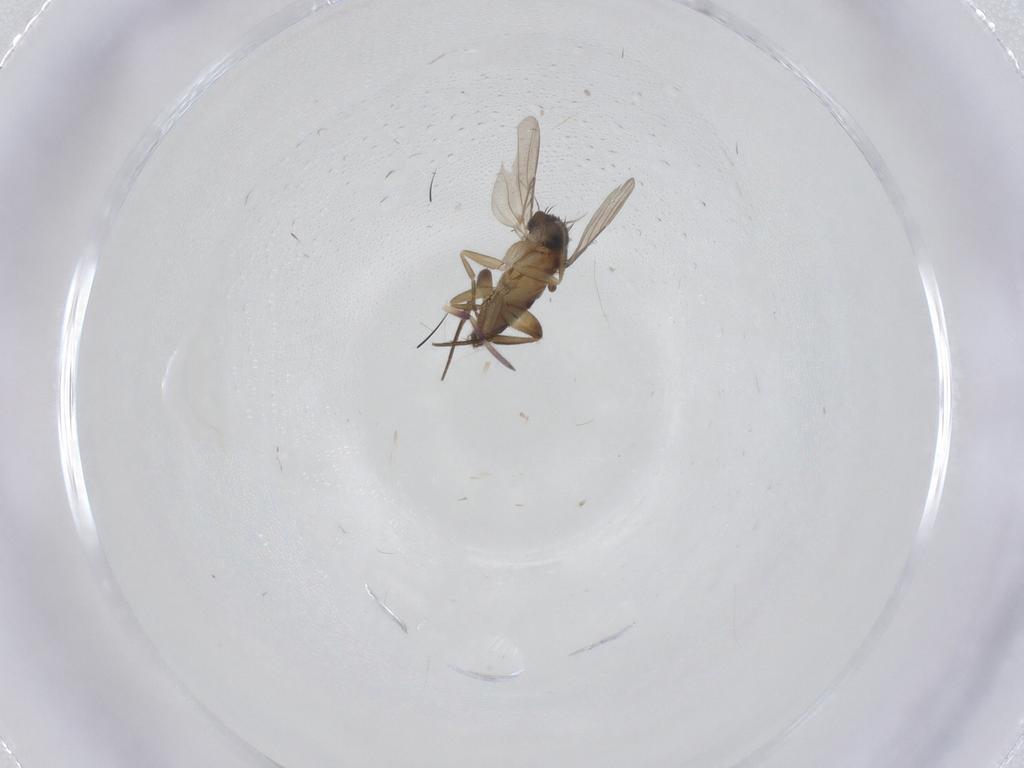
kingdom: Animalia
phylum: Arthropoda
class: Insecta
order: Diptera
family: Phoridae
